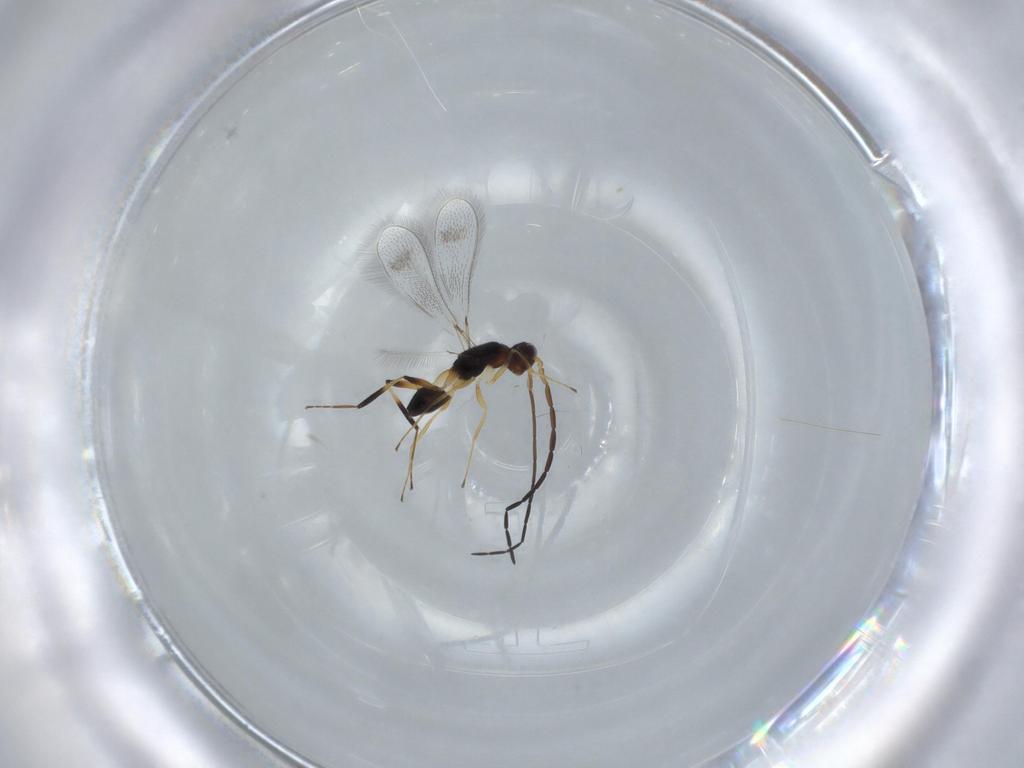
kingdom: Animalia
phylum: Arthropoda
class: Insecta
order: Hymenoptera
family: Mymaridae
